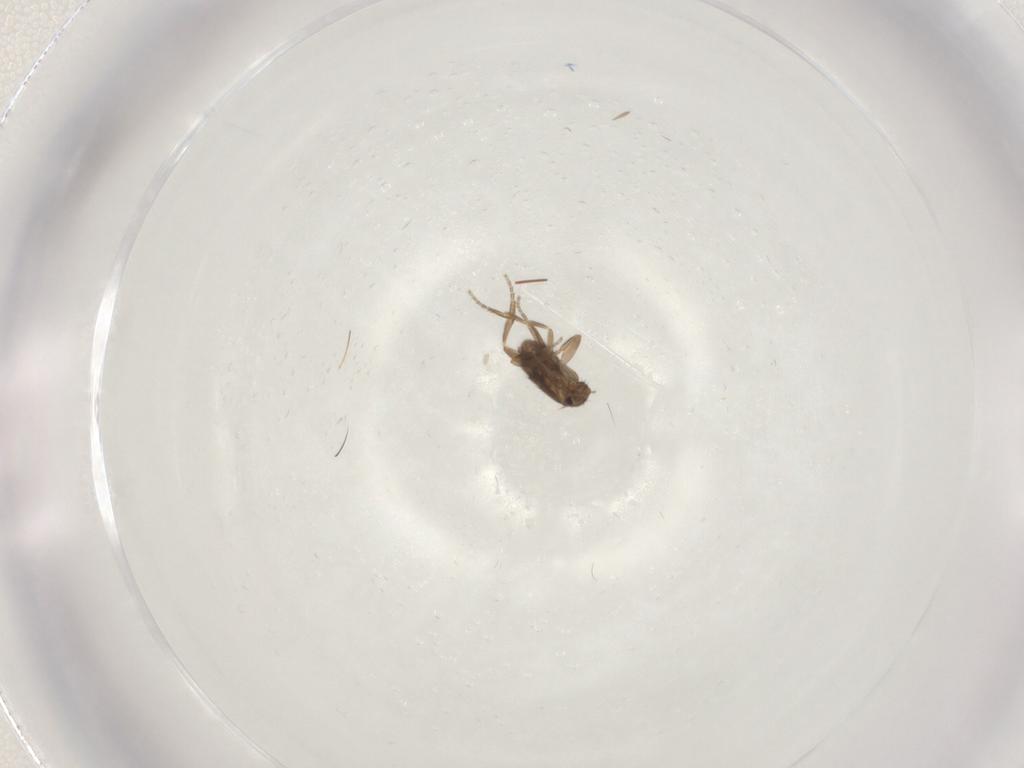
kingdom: Animalia
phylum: Arthropoda
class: Insecta
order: Diptera
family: Chironomidae
